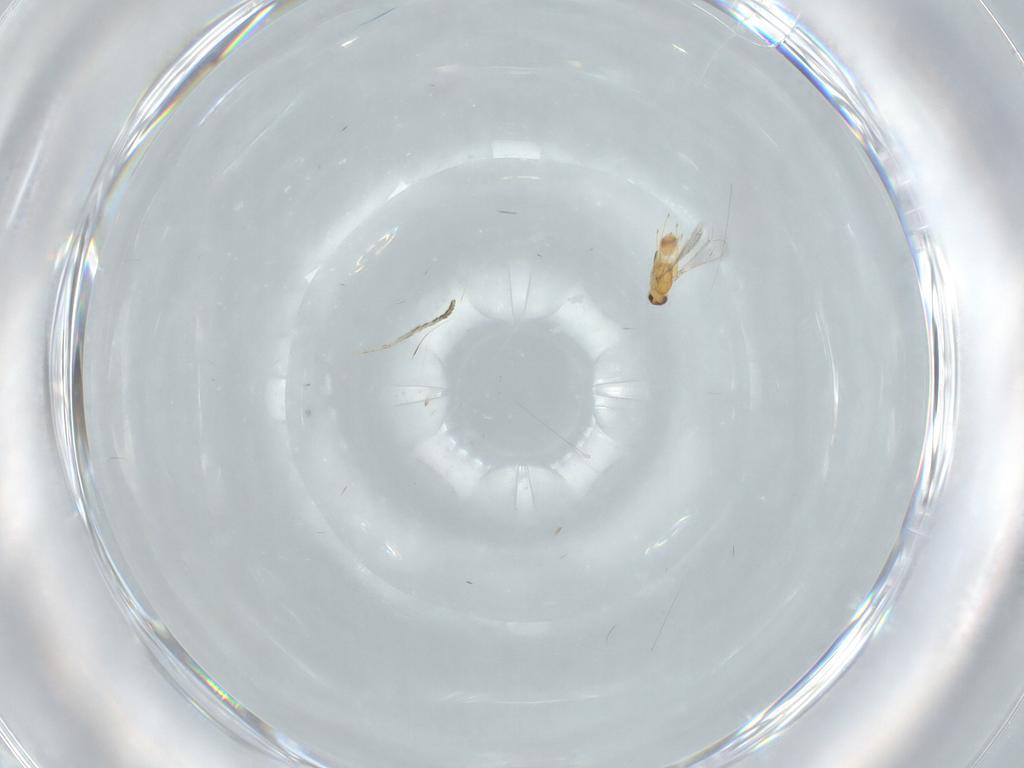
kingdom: Animalia
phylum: Arthropoda
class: Insecta
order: Hymenoptera
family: Mymaridae
